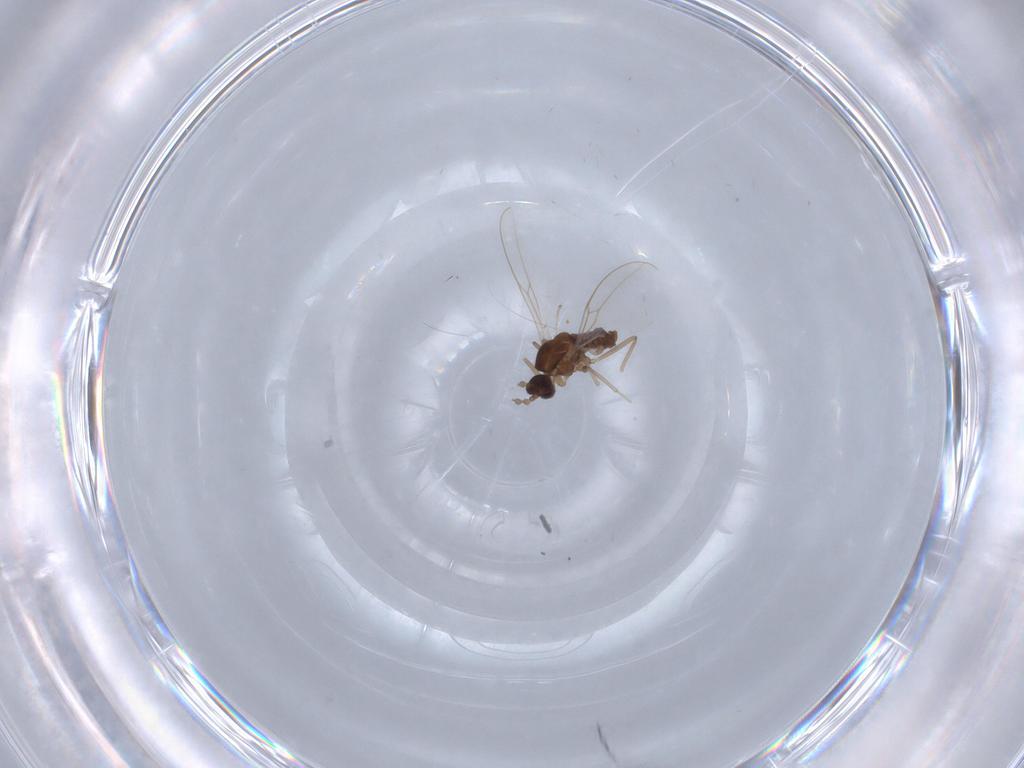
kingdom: Animalia
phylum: Arthropoda
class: Insecta
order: Diptera
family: Cecidomyiidae
